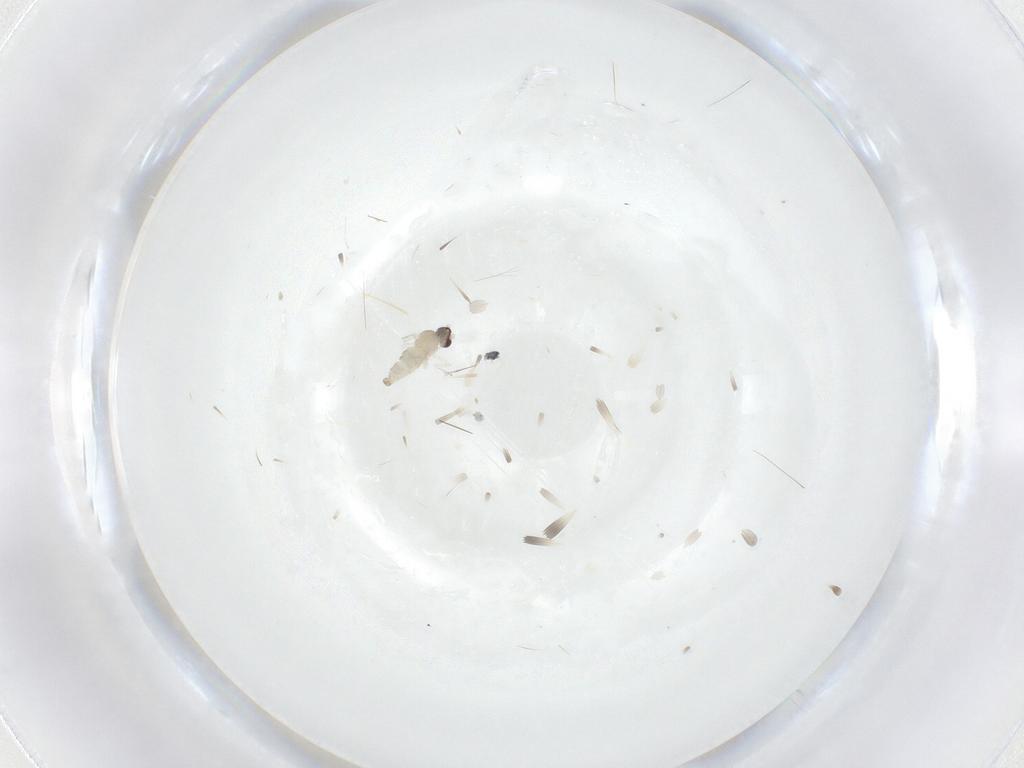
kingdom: Animalia
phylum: Arthropoda
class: Insecta
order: Diptera
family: Cecidomyiidae
